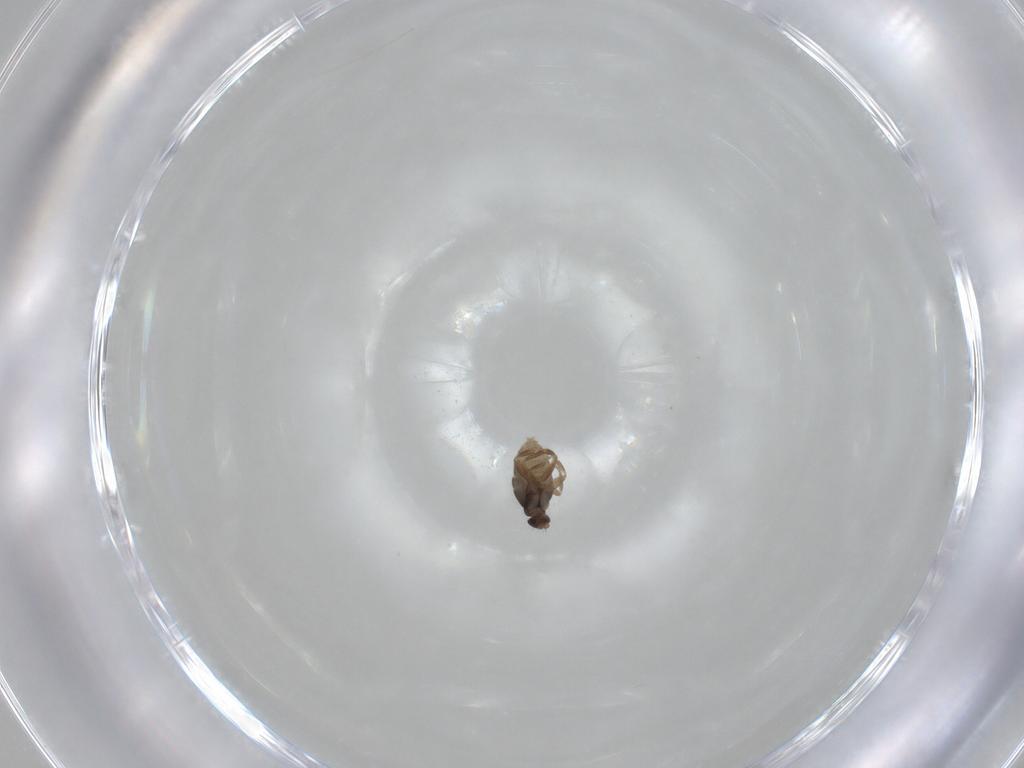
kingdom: Animalia
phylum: Arthropoda
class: Insecta
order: Diptera
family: Phoridae
